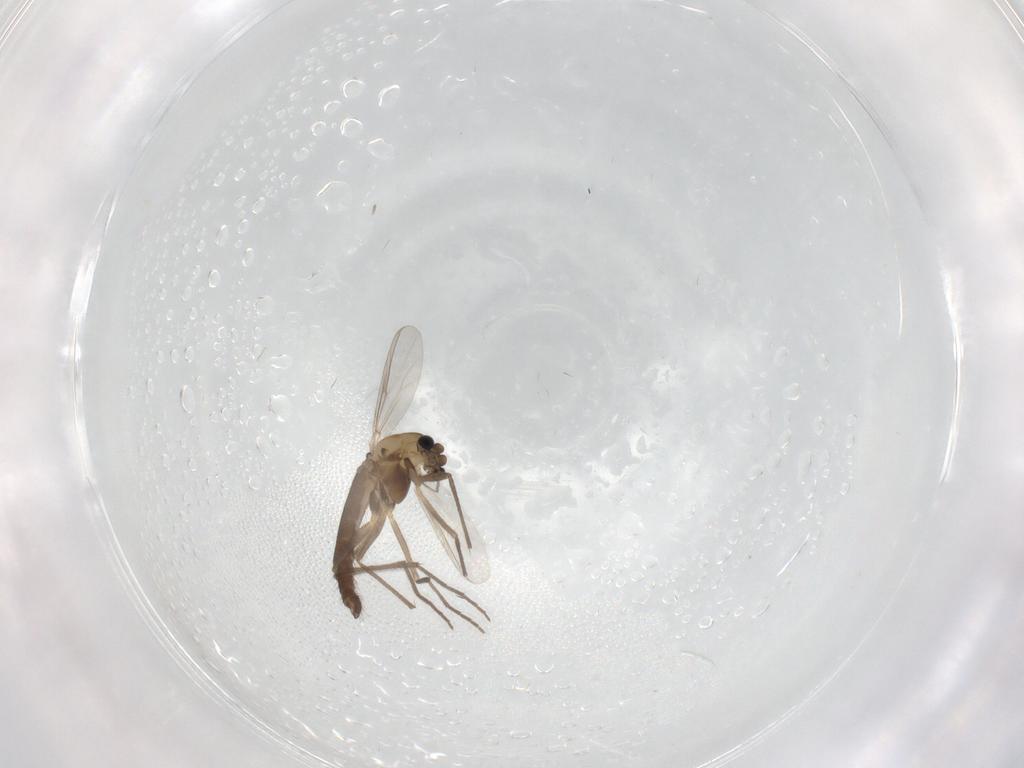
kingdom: Animalia
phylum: Arthropoda
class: Insecta
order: Diptera
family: Chironomidae
